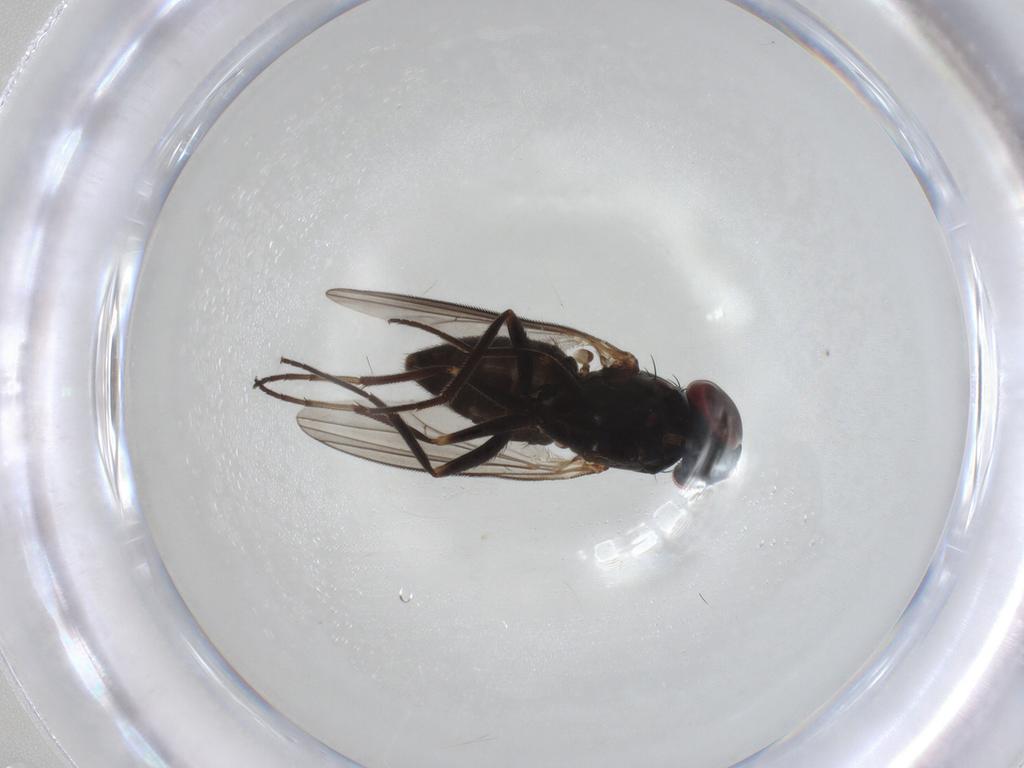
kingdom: Animalia
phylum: Arthropoda
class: Insecta
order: Diptera
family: Dolichopodidae
